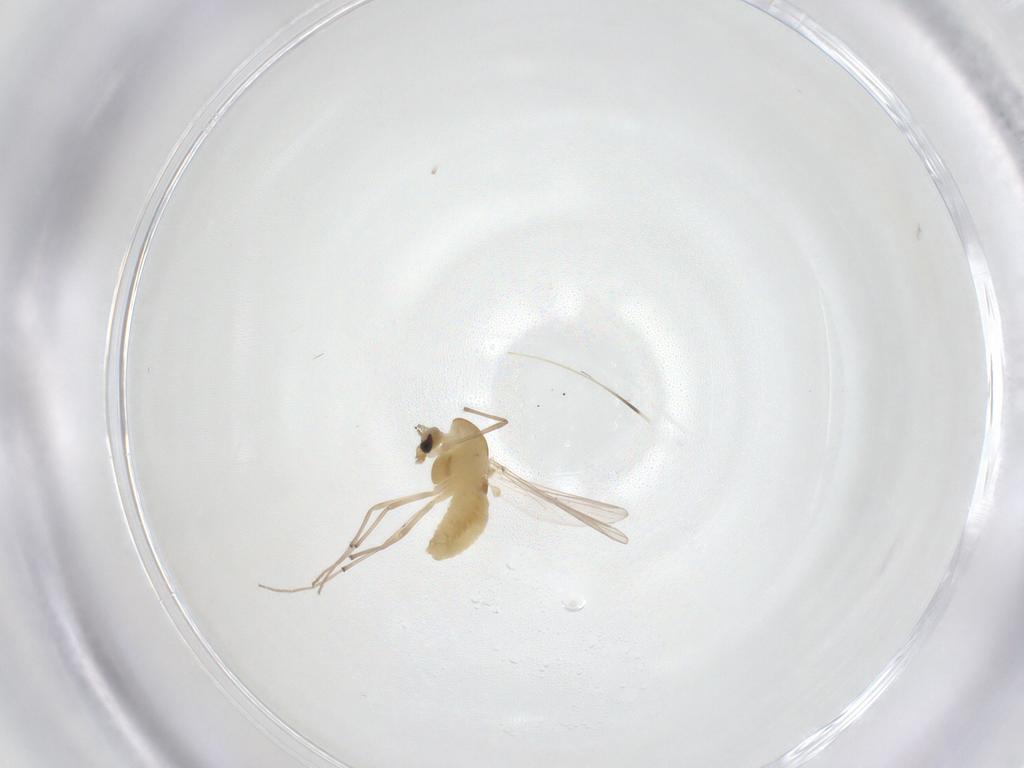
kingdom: Animalia
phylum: Arthropoda
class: Insecta
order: Diptera
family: Chironomidae
